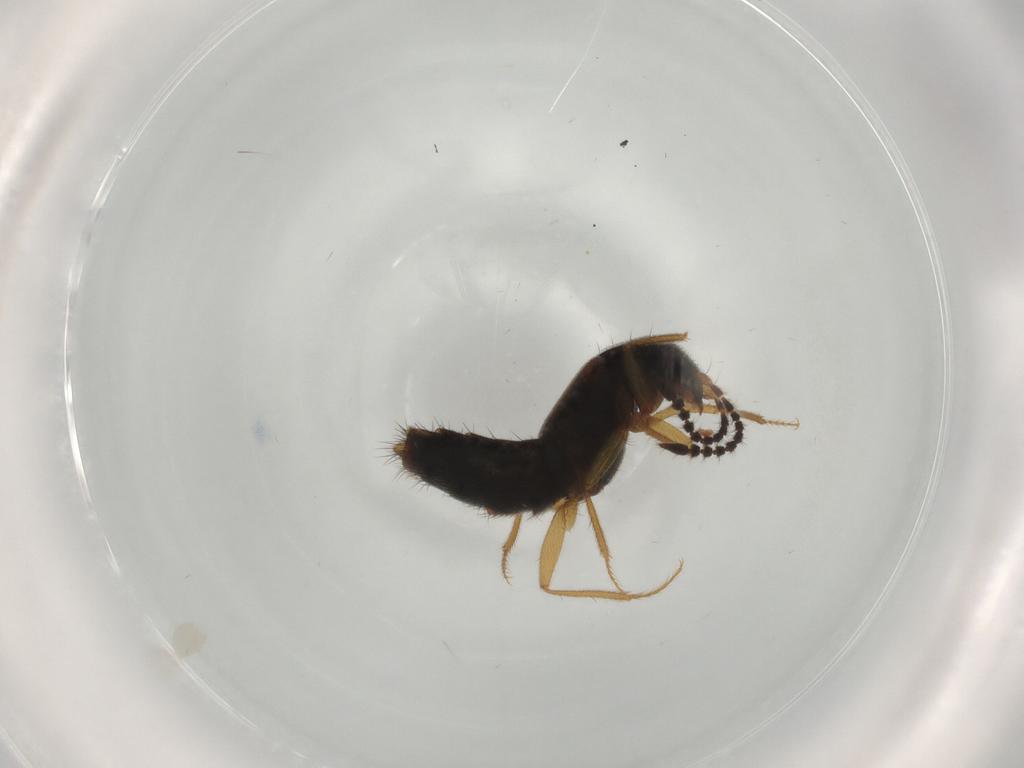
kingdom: Animalia
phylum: Arthropoda
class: Insecta
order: Coleoptera
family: Staphylinidae
